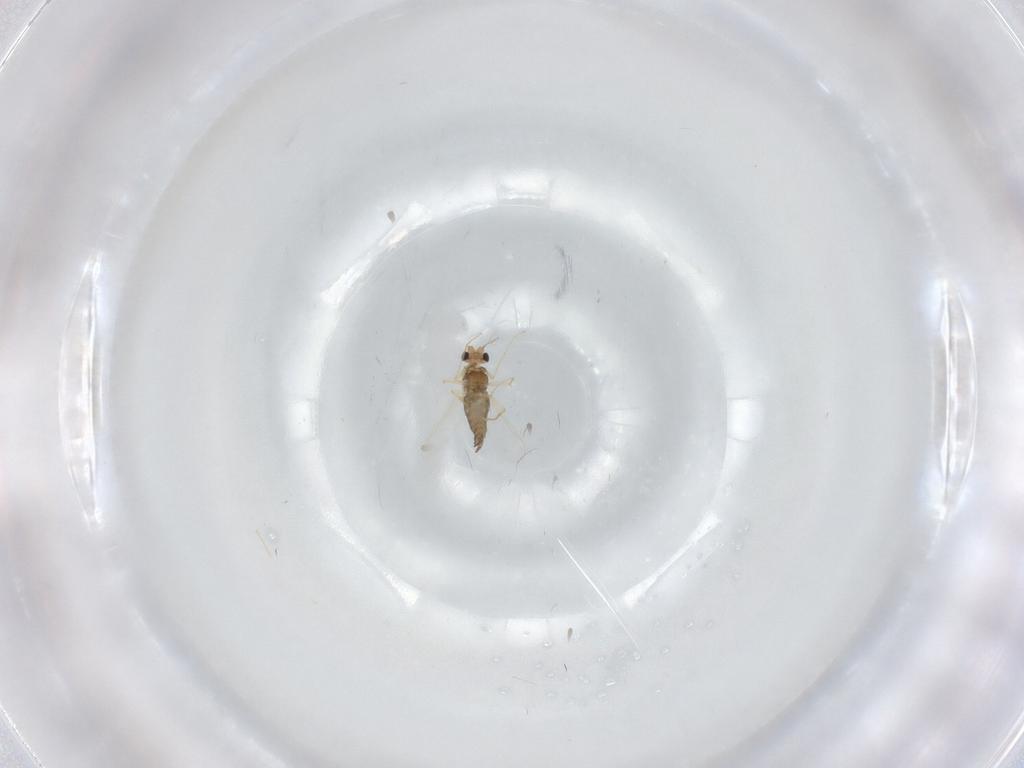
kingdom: Animalia
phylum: Arthropoda
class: Insecta
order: Diptera
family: Chironomidae
